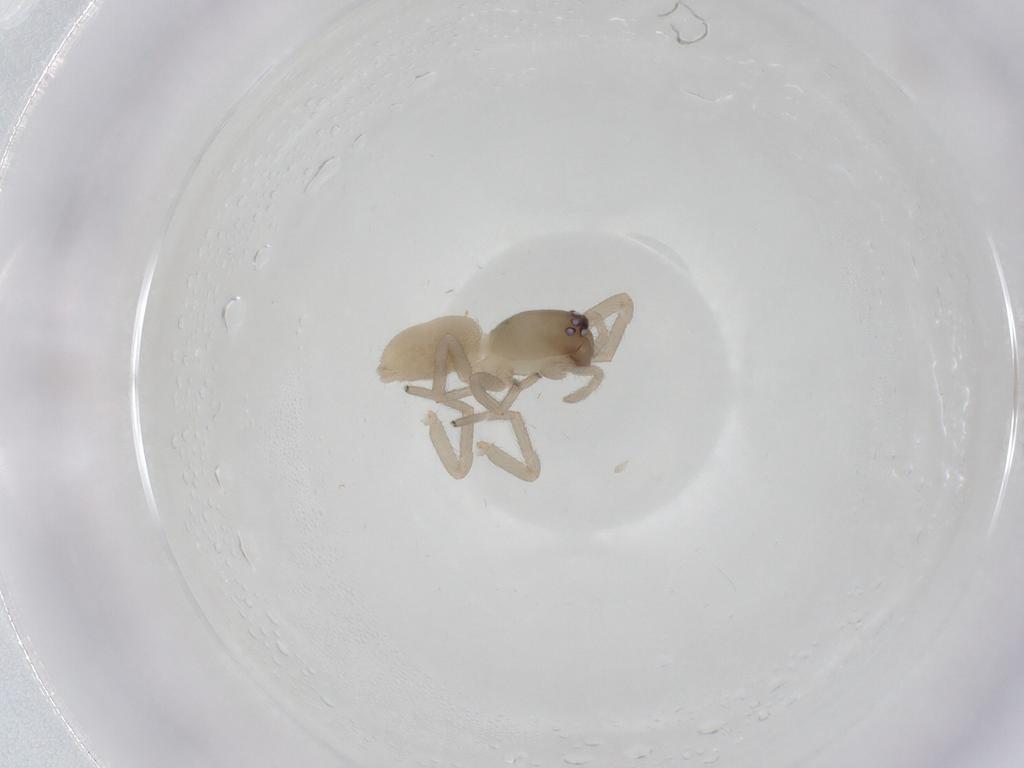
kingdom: Animalia
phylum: Arthropoda
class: Arachnida
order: Araneae
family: Trachelidae
